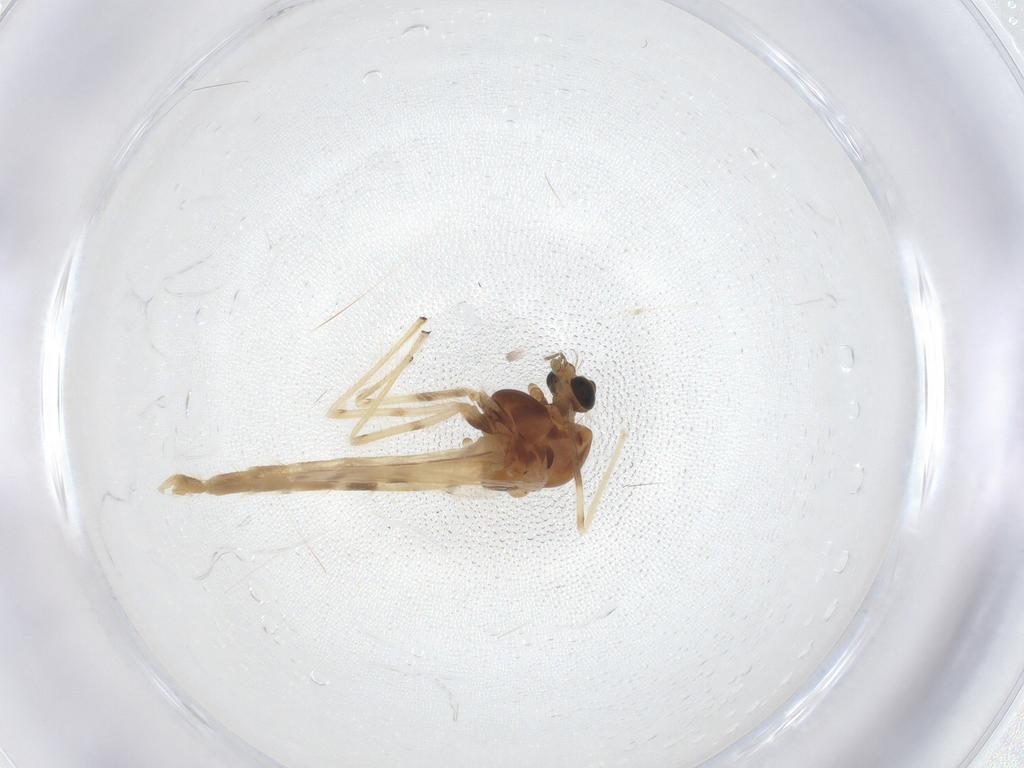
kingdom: Animalia
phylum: Arthropoda
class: Insecta
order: Diptera
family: Chironomidae
